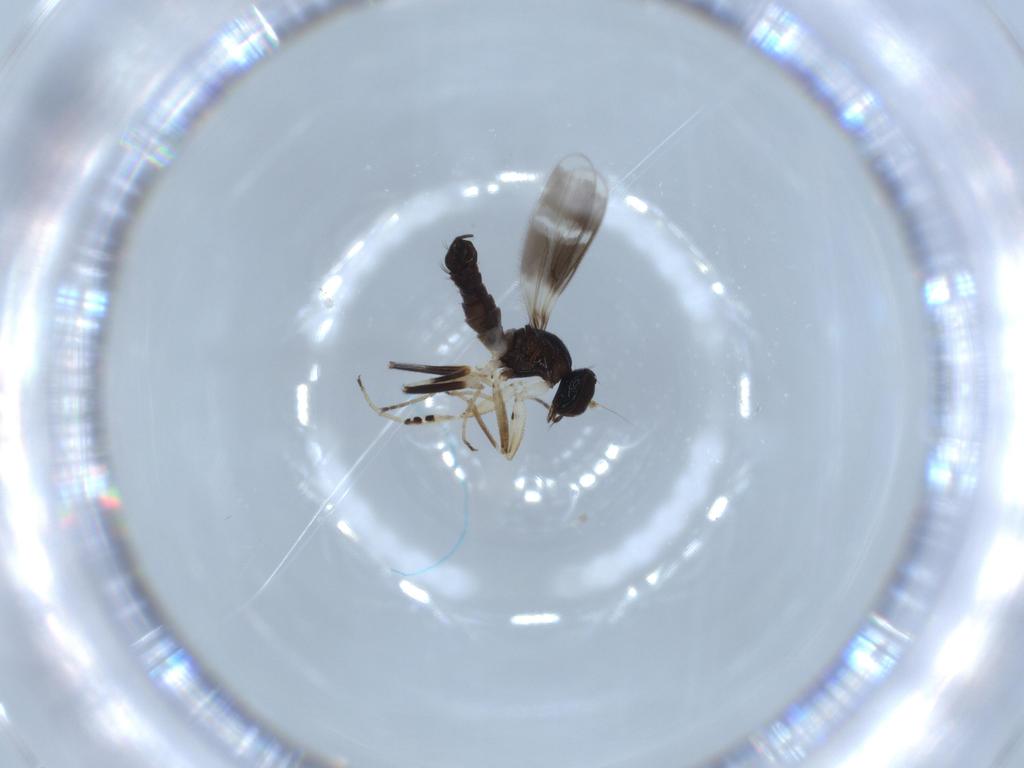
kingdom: Animalia
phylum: Arthropoda
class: Insecta
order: Diptera
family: Hybotidae
